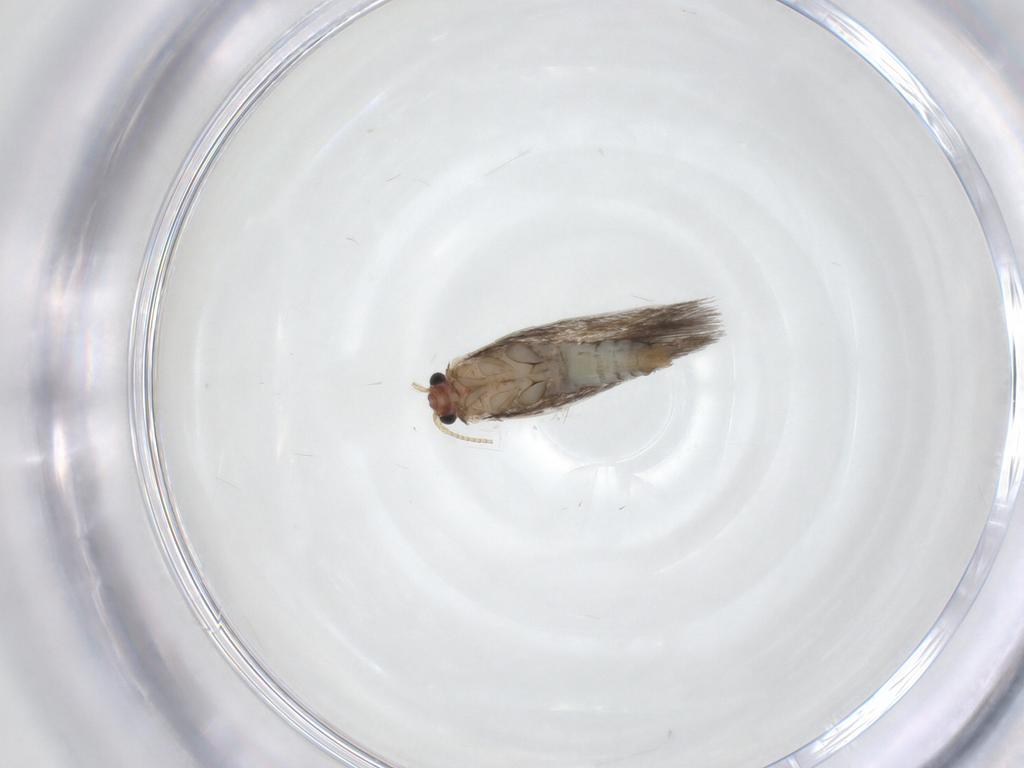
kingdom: Animalia
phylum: Arthropoda
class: Insecta
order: Lepidoptera
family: Nepticulidae
